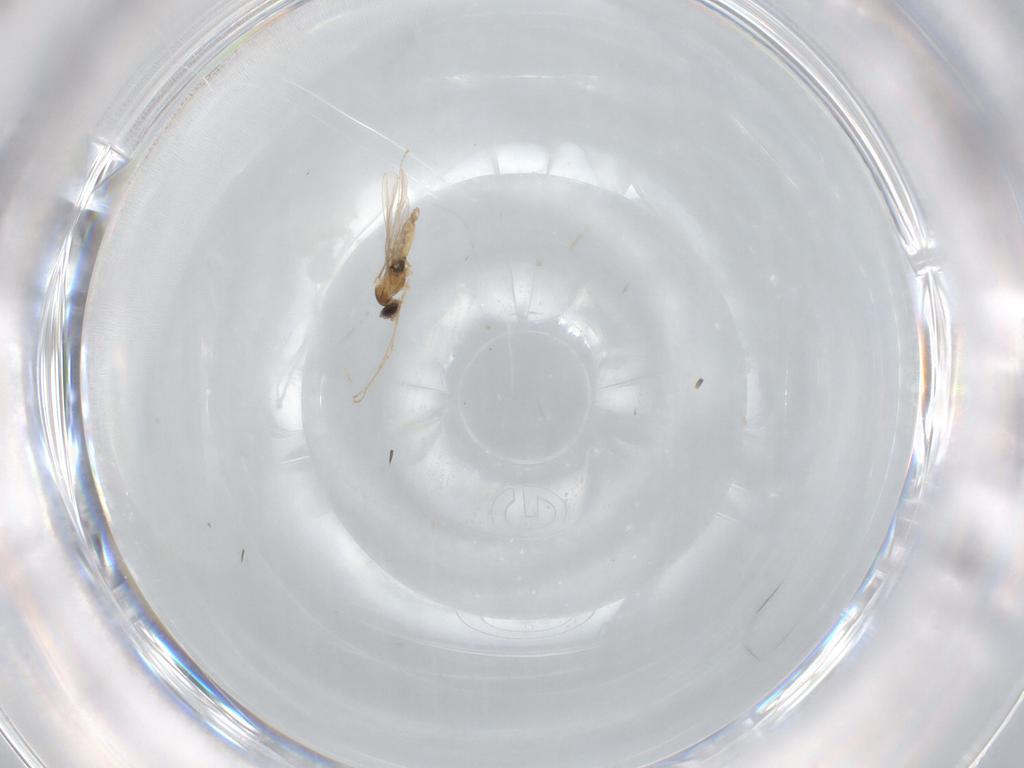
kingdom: Animalia
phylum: Arthropoda
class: Insecta
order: Diptera
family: Cecidomyiidae
